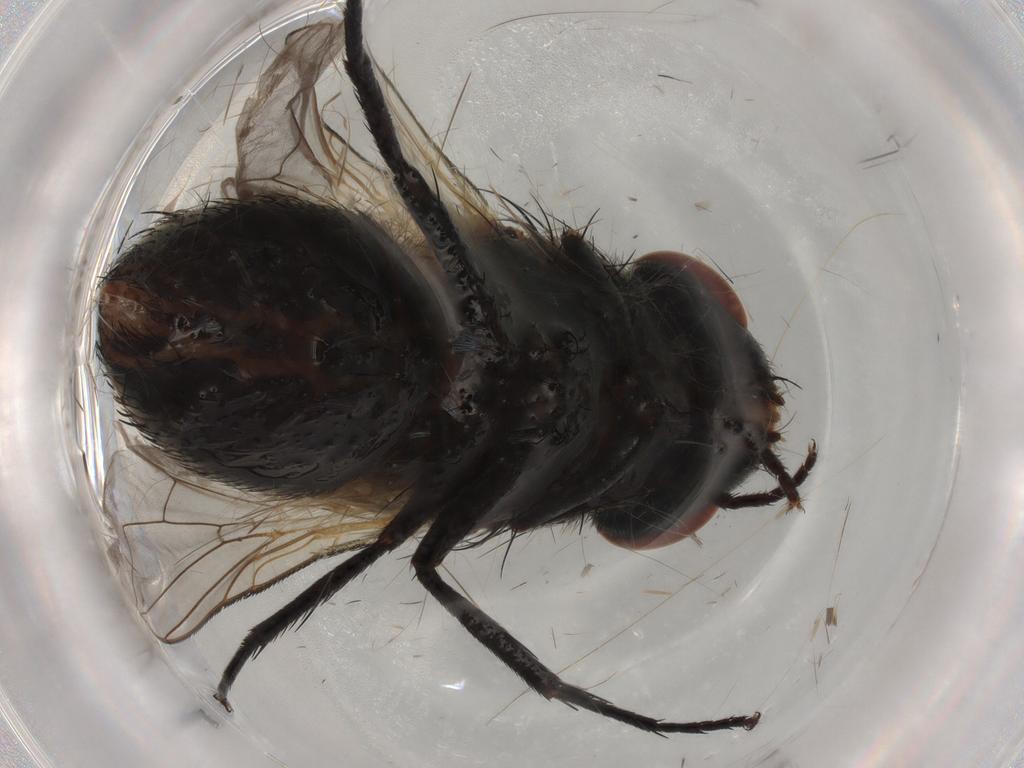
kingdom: Animalia
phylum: Arthropoda
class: Insecta
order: Diptera
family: Sarcophagidae
